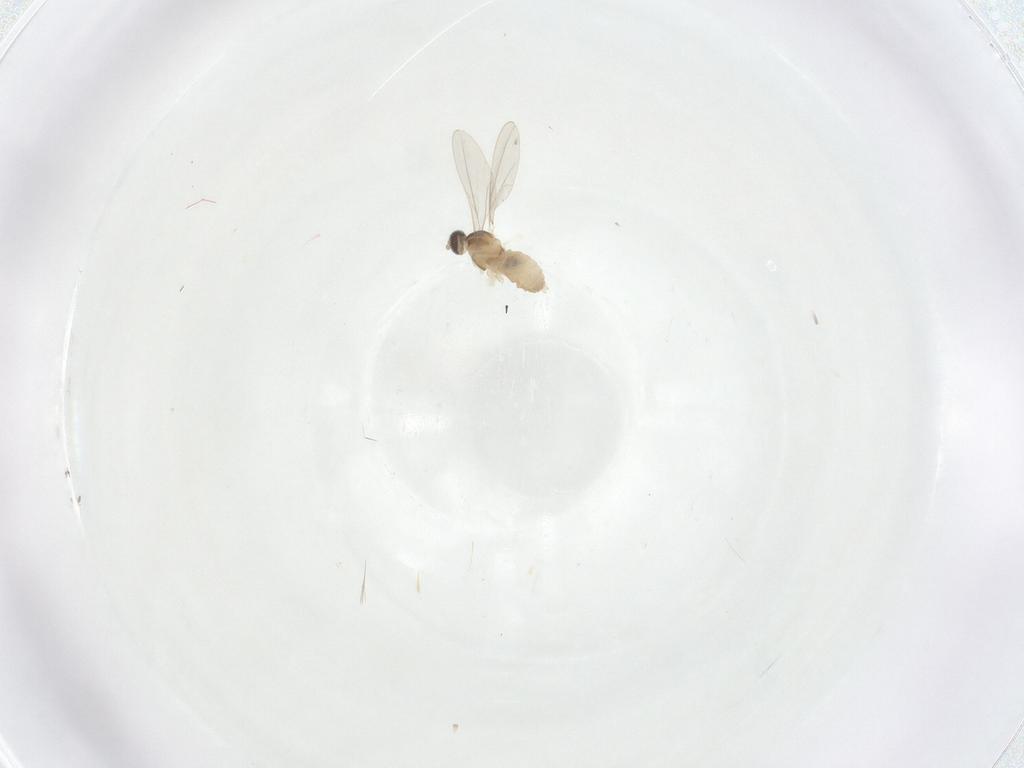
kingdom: Animalia
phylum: Arthropoda
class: Insecta
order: Diptera
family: Cecidomyiidae
